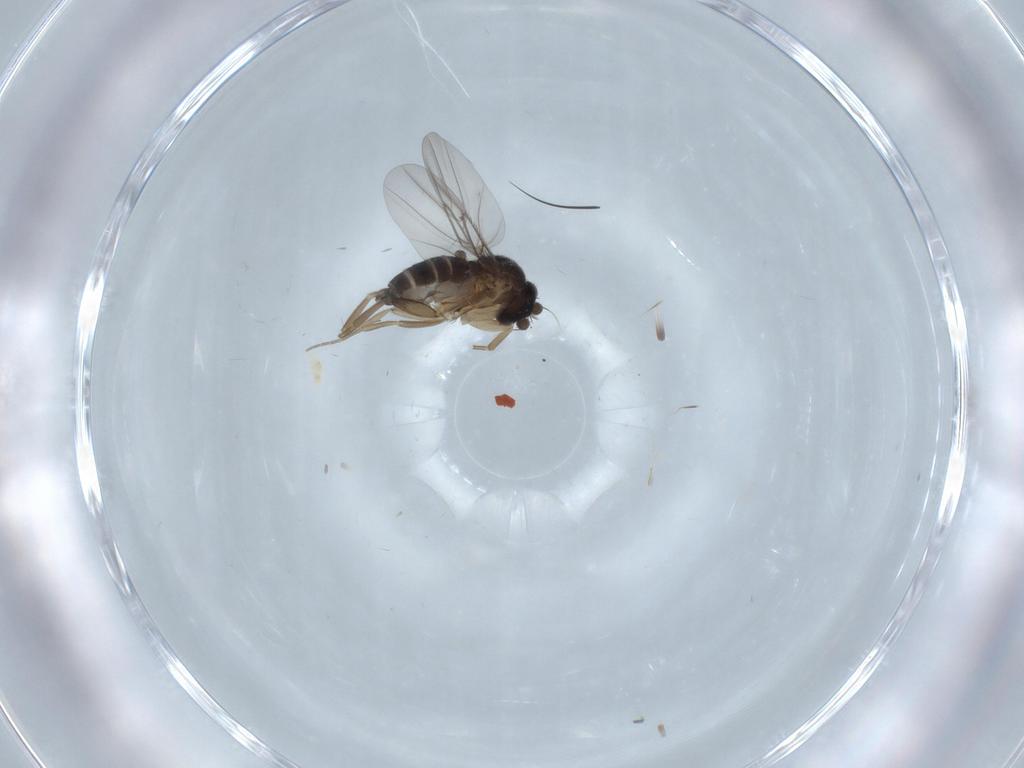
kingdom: Animalia
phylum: Arthropoda
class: Insecta
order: Diptera
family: Phoridae
